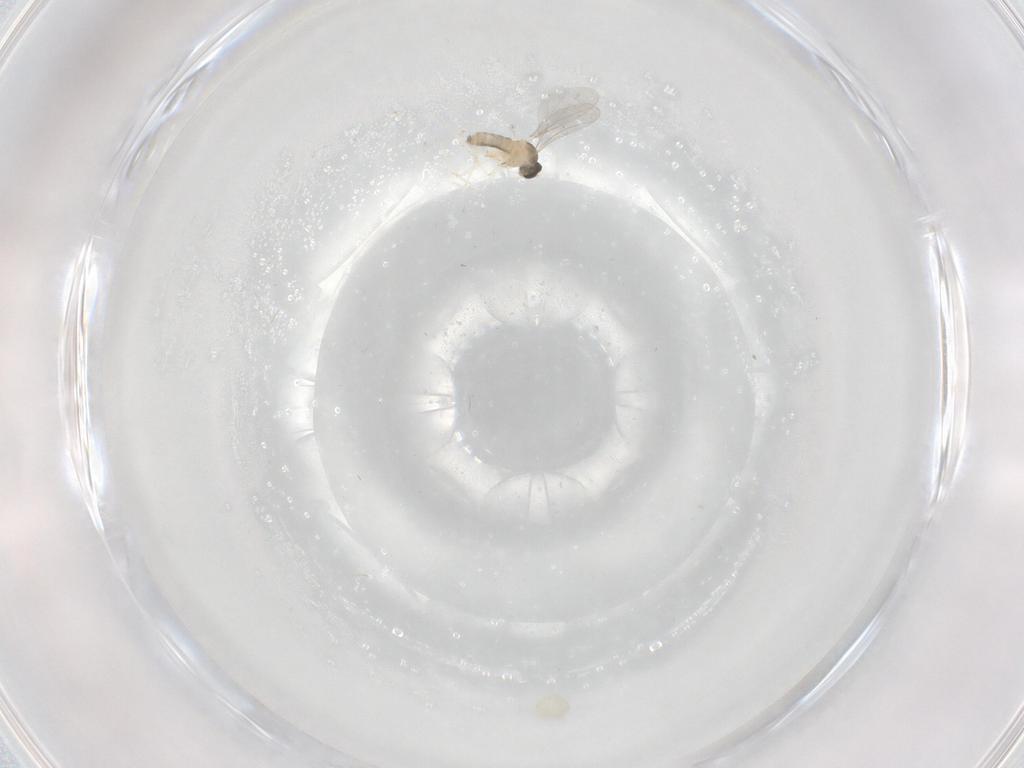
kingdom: Animalia
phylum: Arthropoda
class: Insecta
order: Diptera
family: Cecidomyiidae
